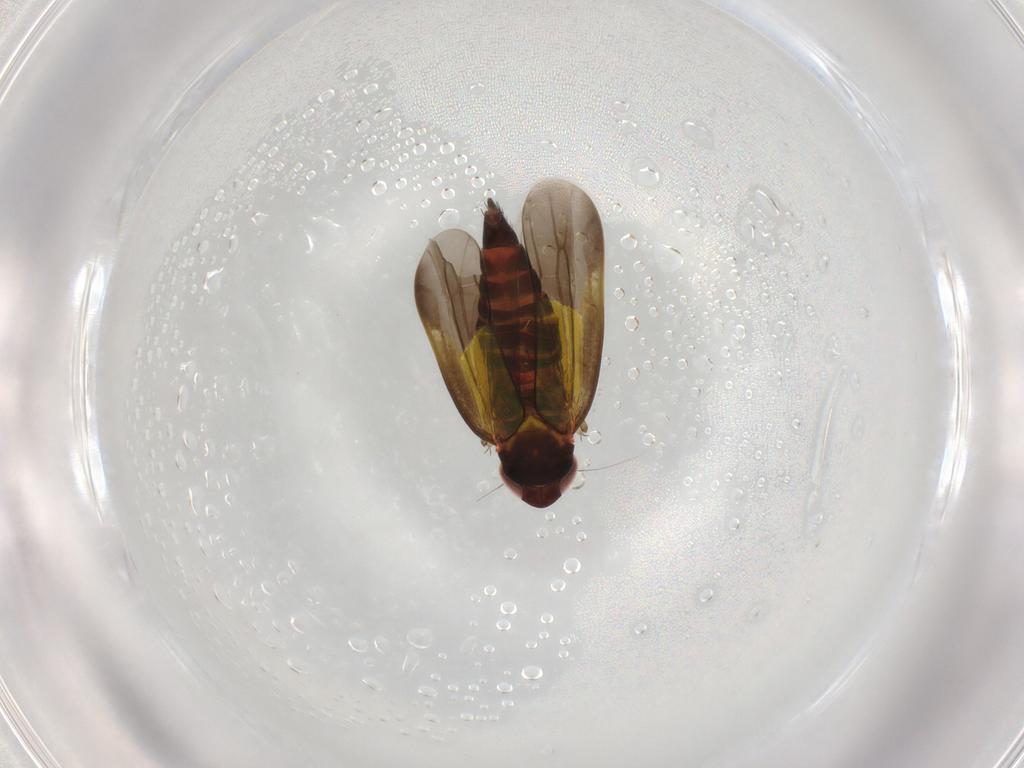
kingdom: Animalia
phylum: Arthropoda
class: Insecta
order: Hemiptera
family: Cicadellidae
